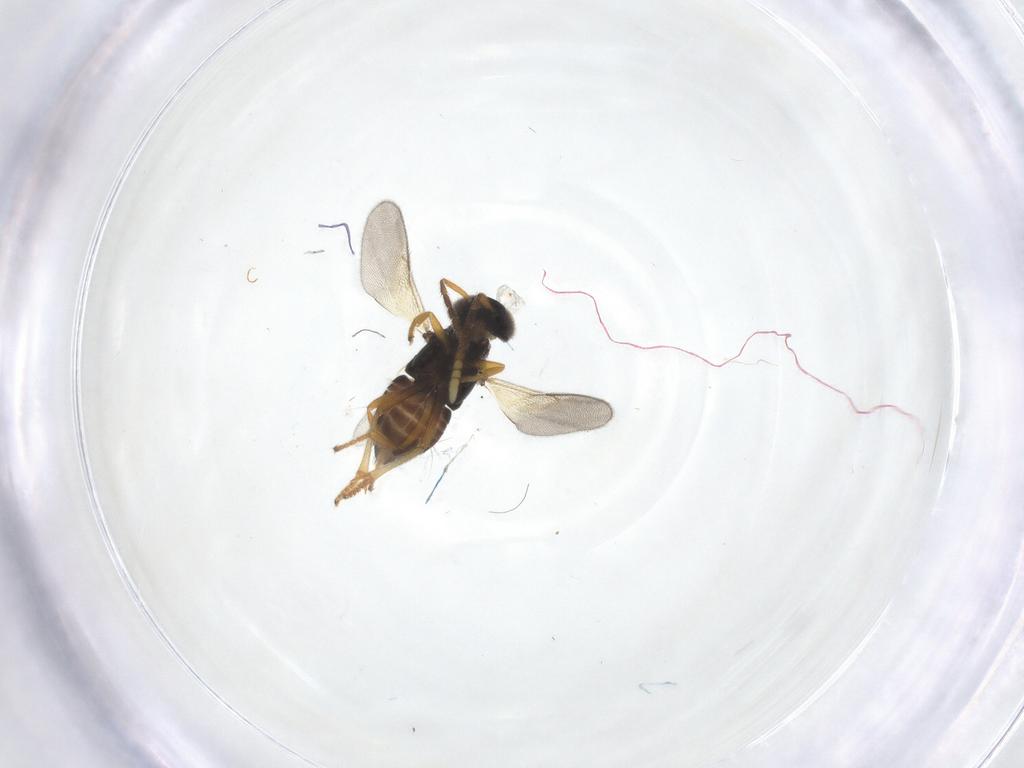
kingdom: Animalia
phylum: Arthropoda
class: Insecta
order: Hymenoptera
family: Encyrtidae
